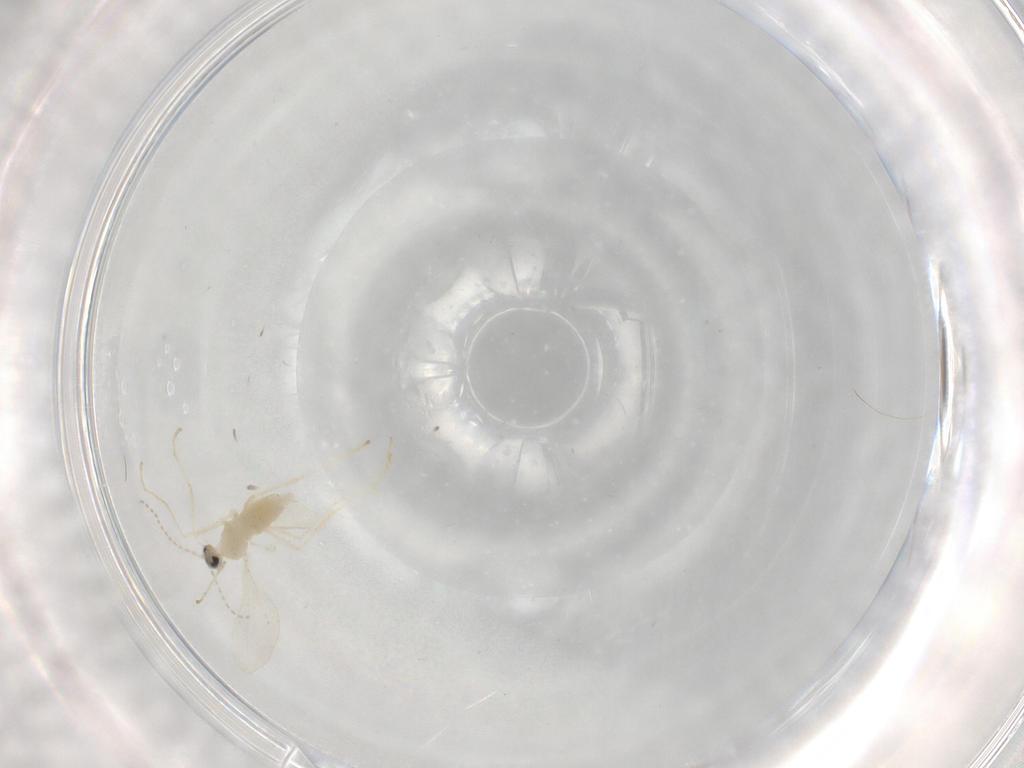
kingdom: Animalia
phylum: Arthropoda
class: Insecta
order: Diptera
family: Cecidomyiidae
